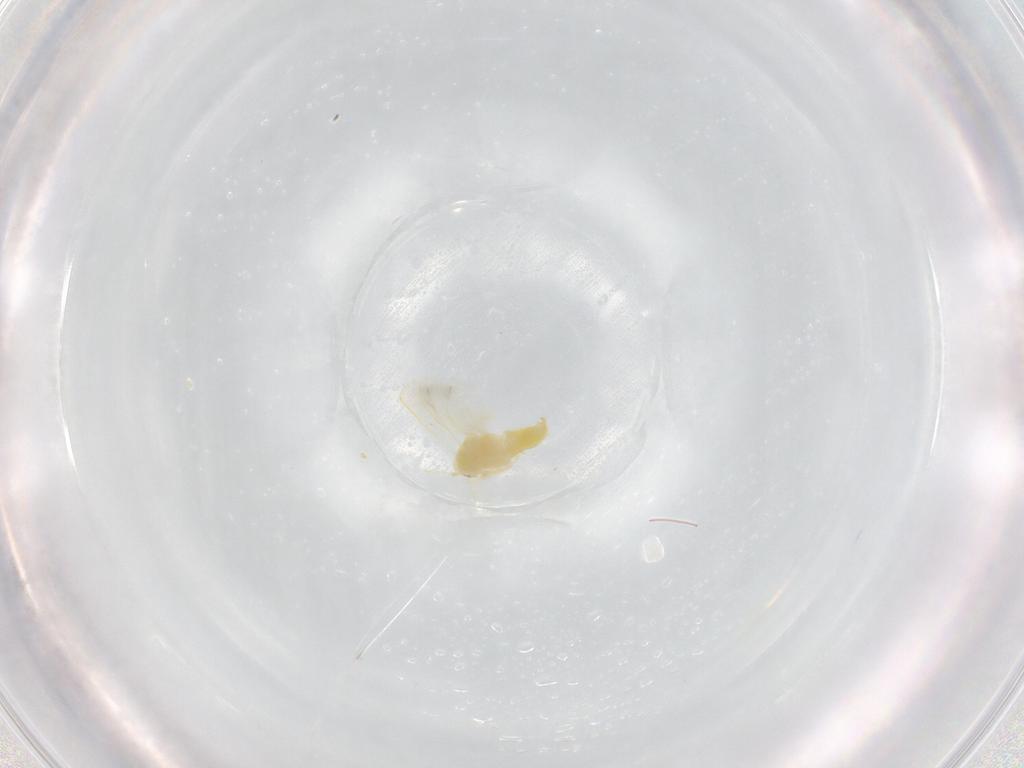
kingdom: Animalia
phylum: Arthropoda
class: Insecta
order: Hemiptera
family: Aleyrodidae
